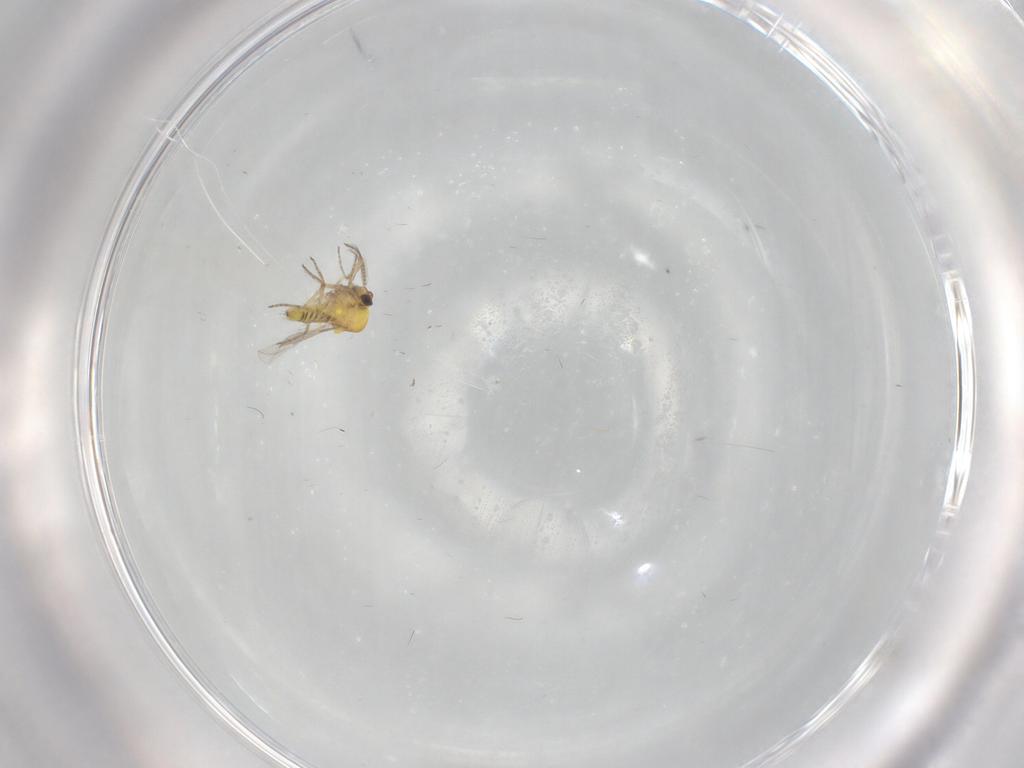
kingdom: Animalia
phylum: Arthropoda
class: Insecta
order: Diptera
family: Ceratopogonidae
